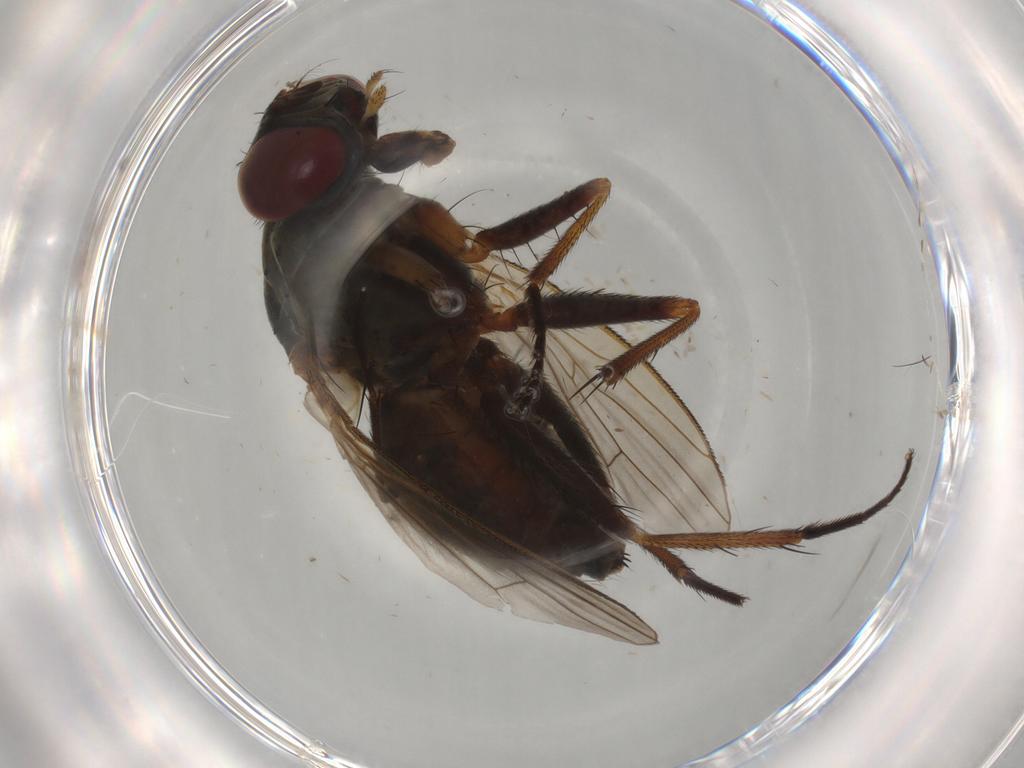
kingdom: Animalia
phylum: Arthropoda
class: Insecta
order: Diptera
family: Muscidae
